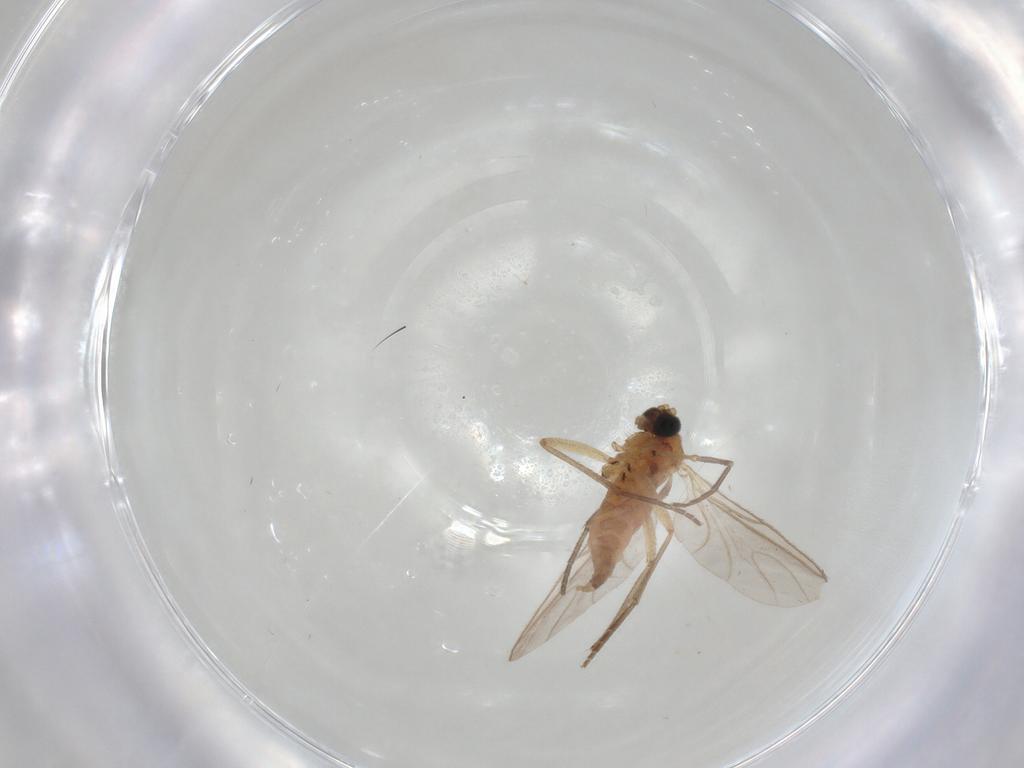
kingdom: Animalia
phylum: Arthropoda
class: Insecta
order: Diptera
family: Sciaridae
